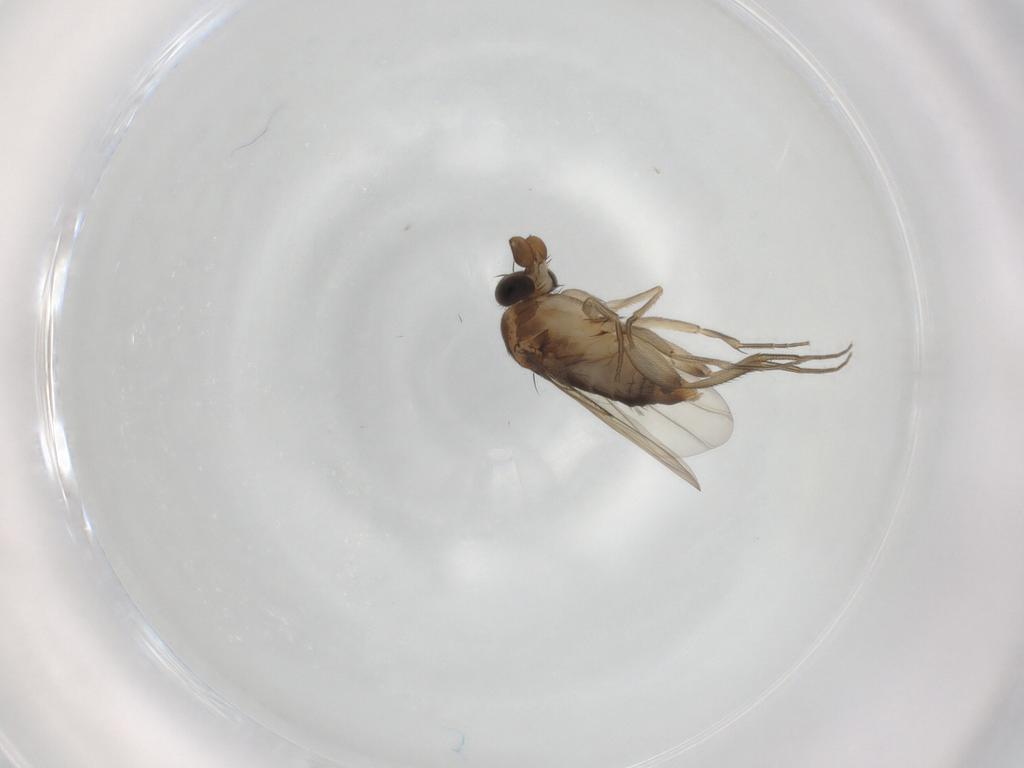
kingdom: Animalia
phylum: Arthropoda
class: Insecta
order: Diptera
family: Phoridae
